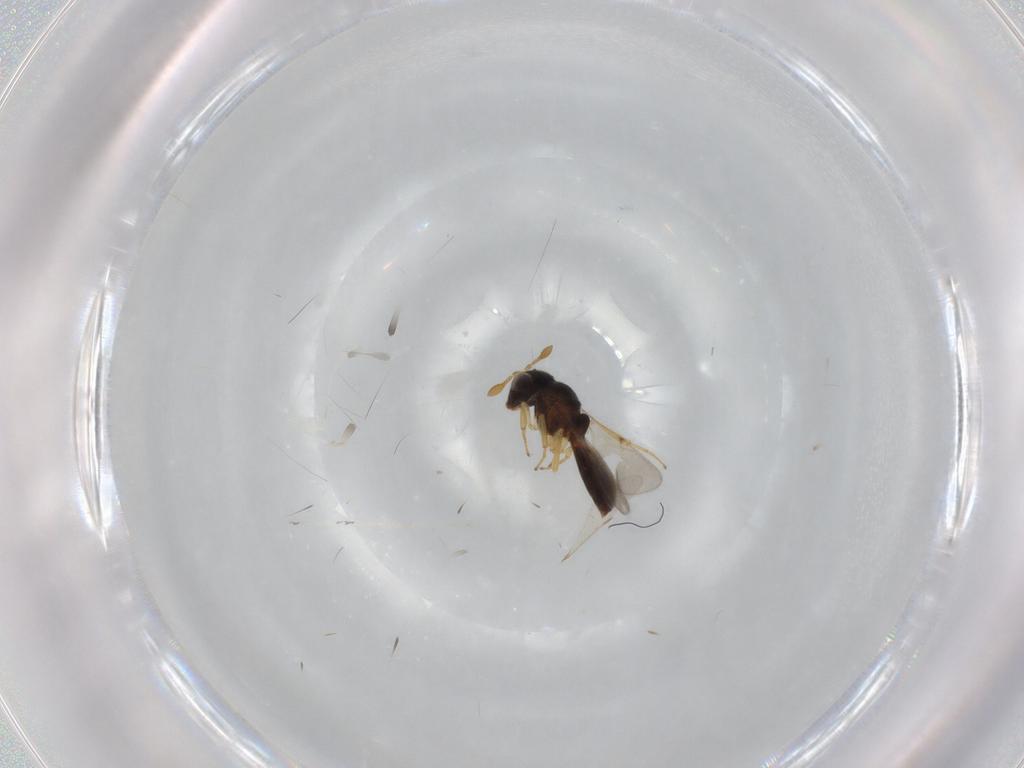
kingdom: Animalia
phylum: Arthropoda
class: Insecta
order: Hymenoptera
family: Scelionidae
